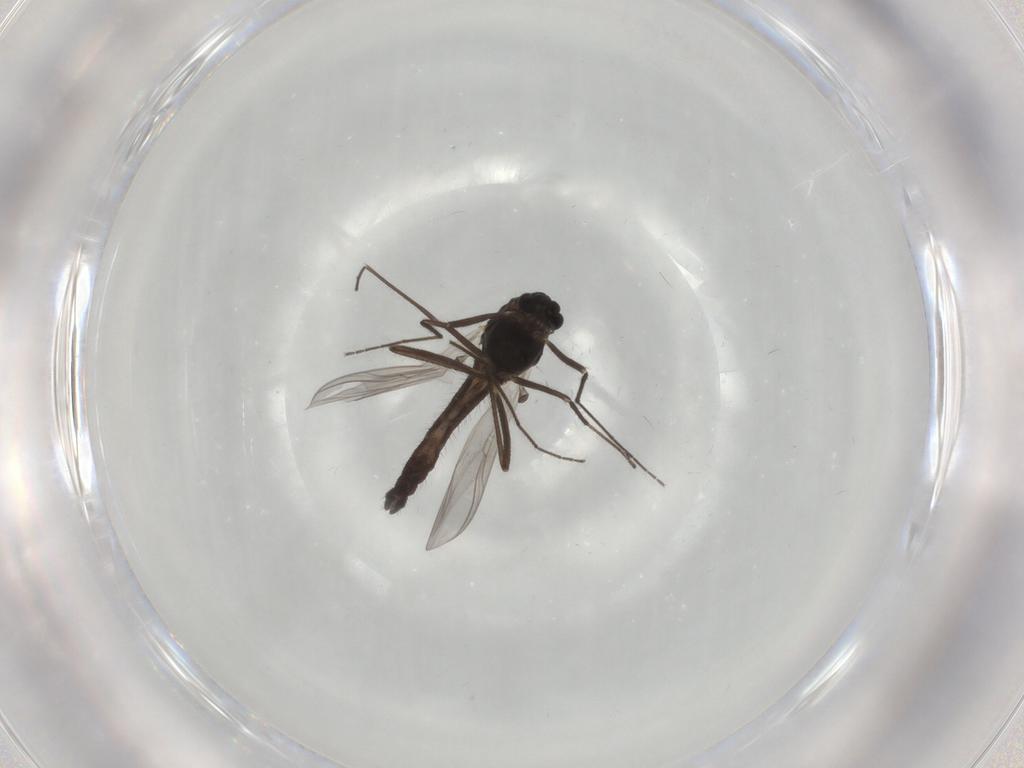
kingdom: Animalia
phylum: Arthropoda
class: Insecta
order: Diptera
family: Chironomidae
